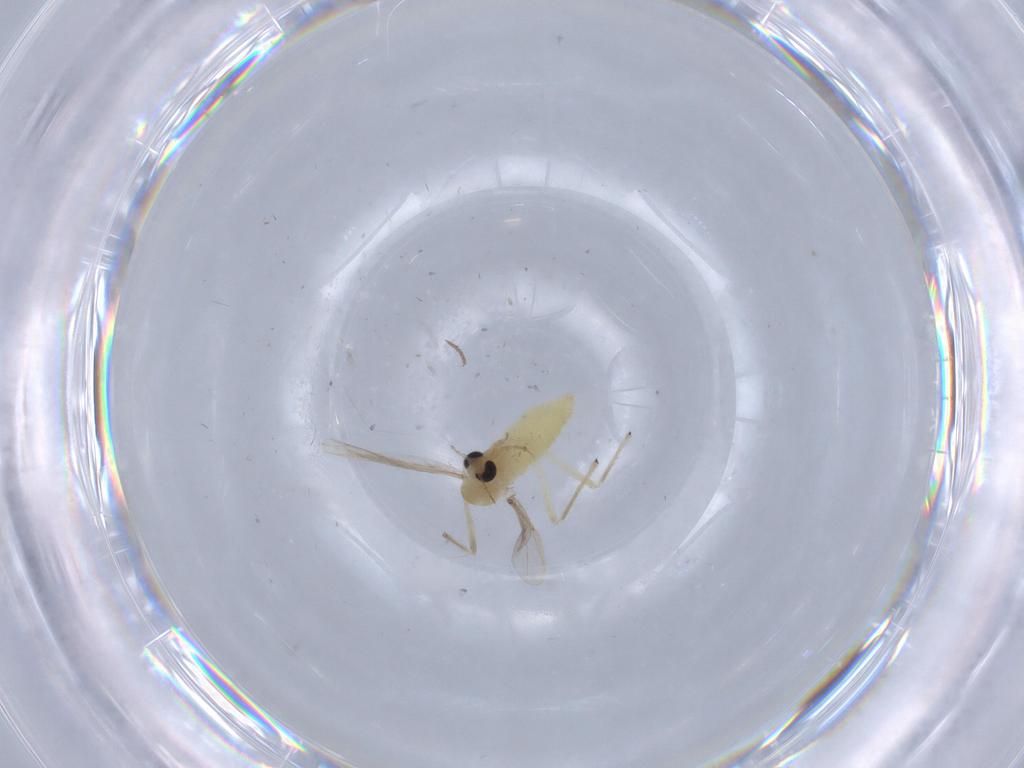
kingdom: Animalia
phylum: Arthropoda
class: Insecta
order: Diptera
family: Chironomidae
